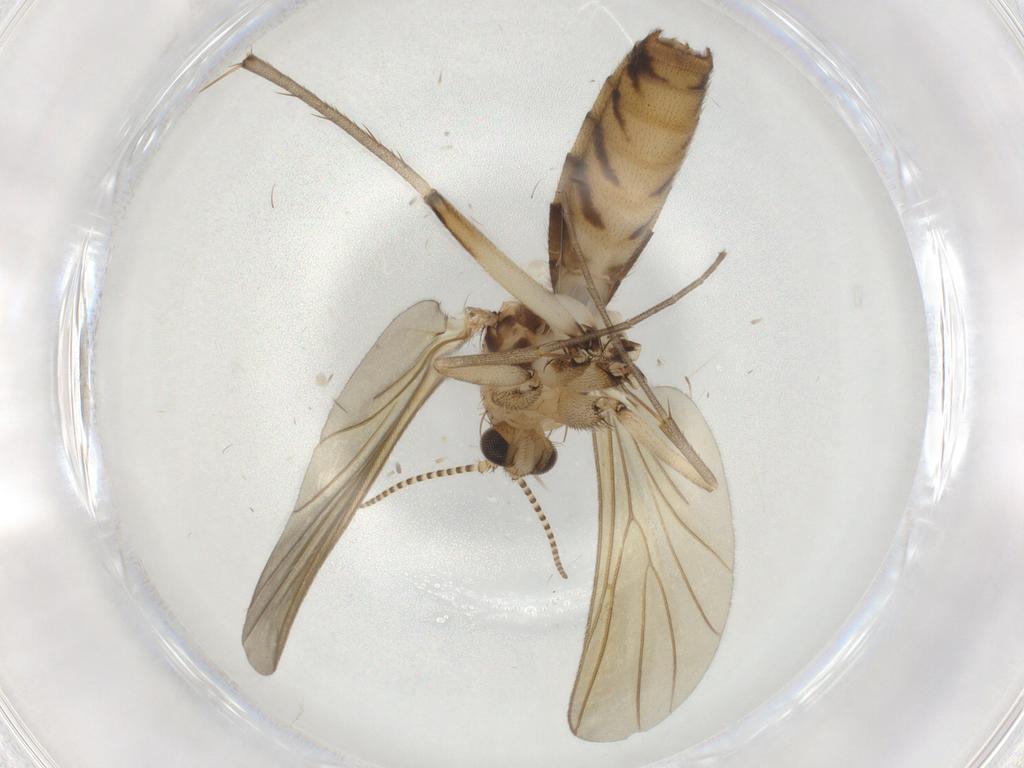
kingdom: Animalia
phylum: Arthropoda
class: Insecta
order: Diptera
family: Mycetophilidae
